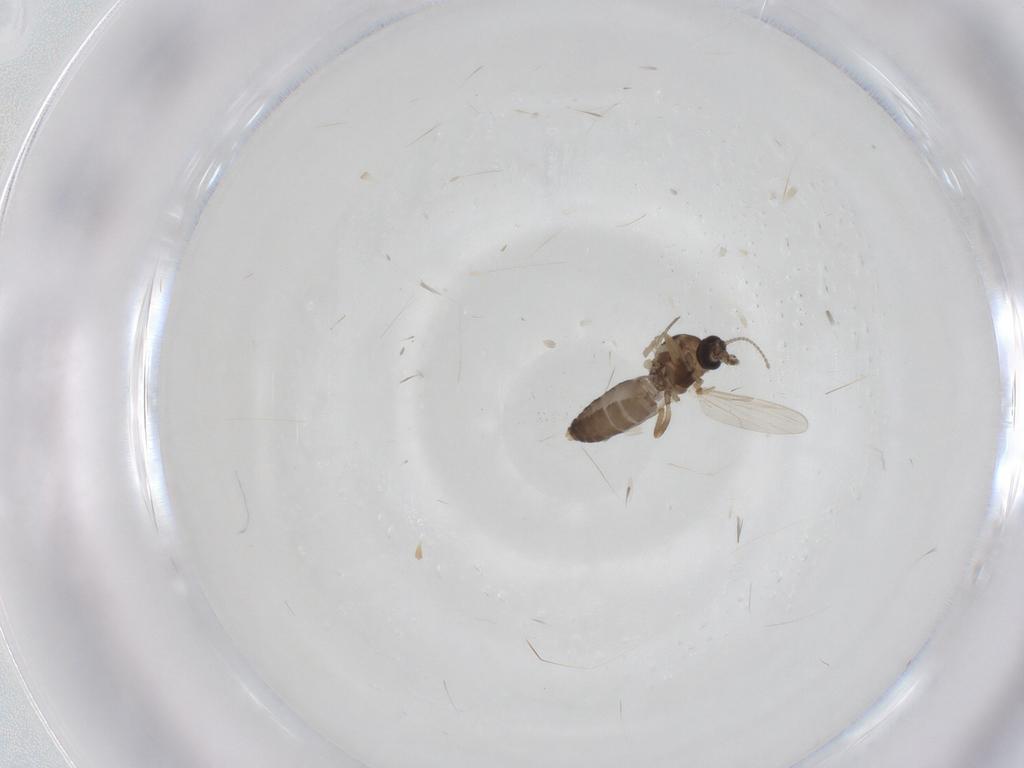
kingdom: Animalia
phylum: Arthropoda
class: Insecta
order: Diptera
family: Ceratopogonidae
